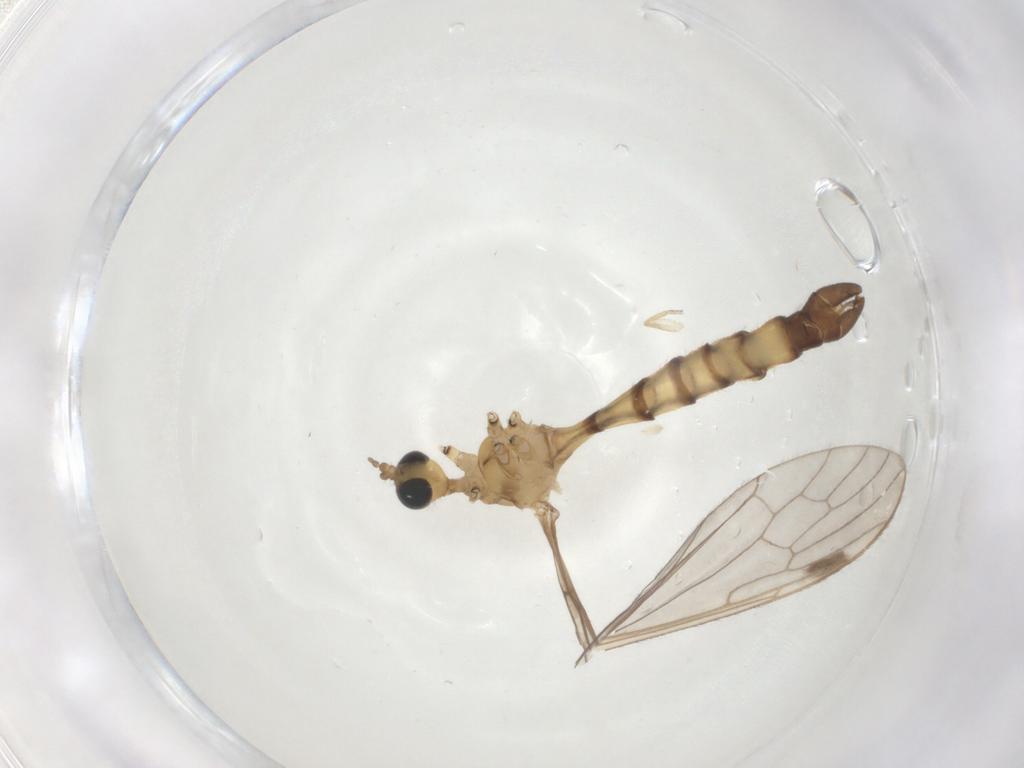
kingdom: Animalia
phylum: Arthropoda
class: Insecta
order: Diptera
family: Limoniidae
